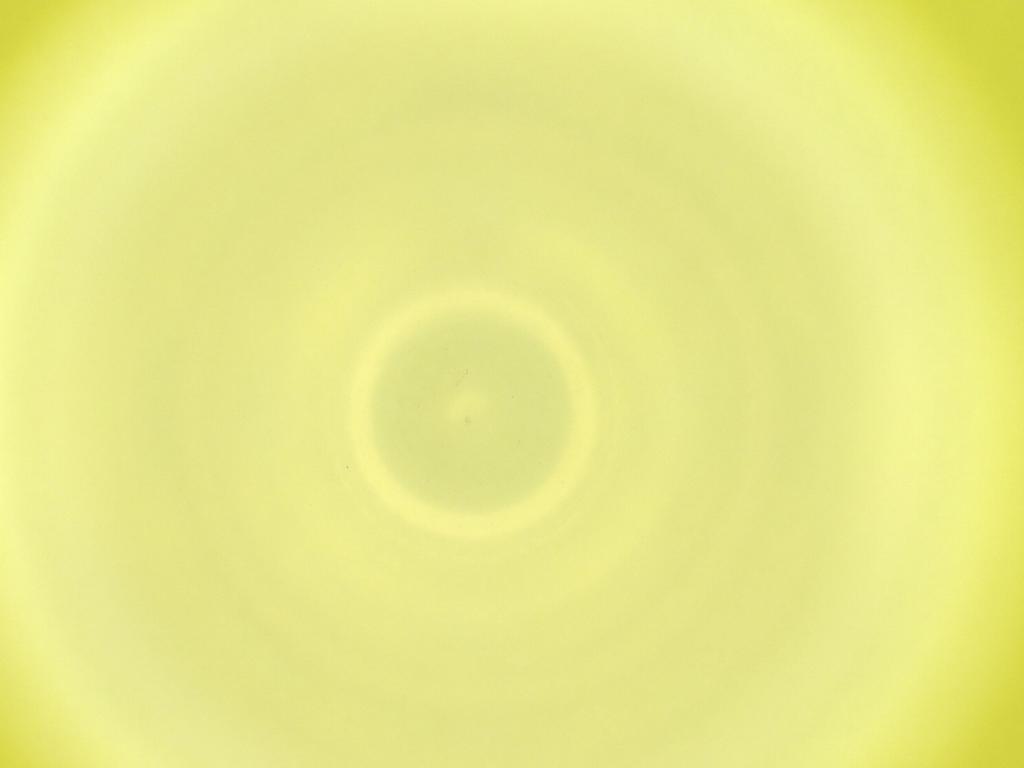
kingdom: Animalia
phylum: Arthropoda
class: Insecta
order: Diptera
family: Cecidomyiidae
